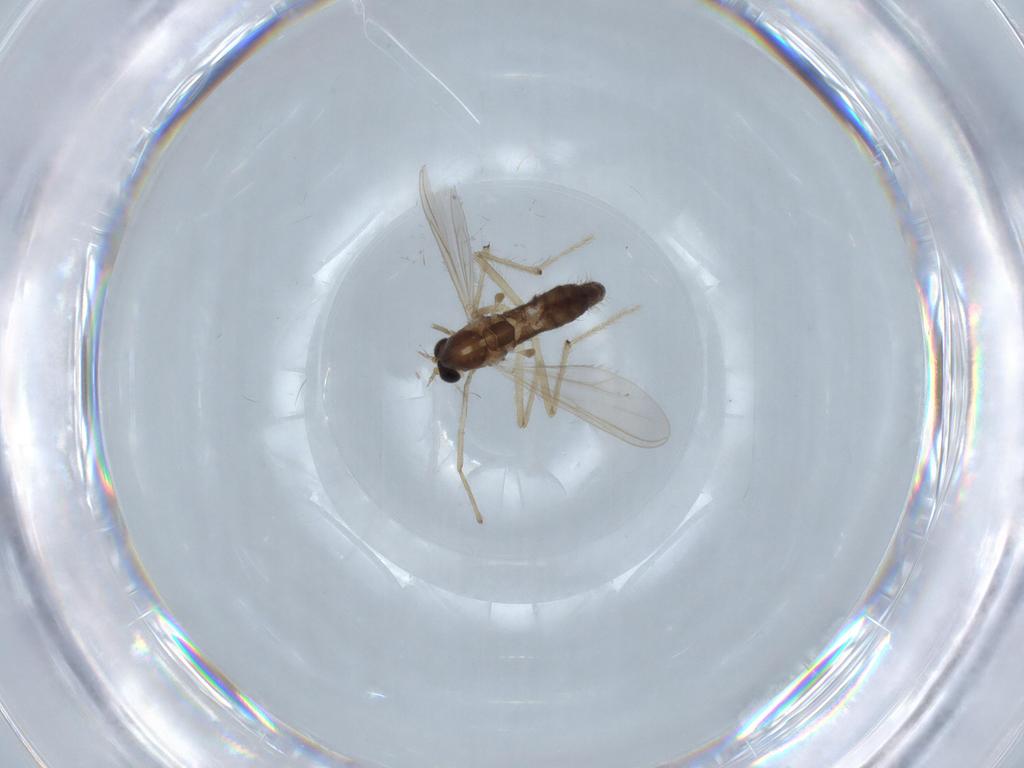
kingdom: Animalia
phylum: Arthropoda
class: Insecta
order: Diptera
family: Chironomidae
